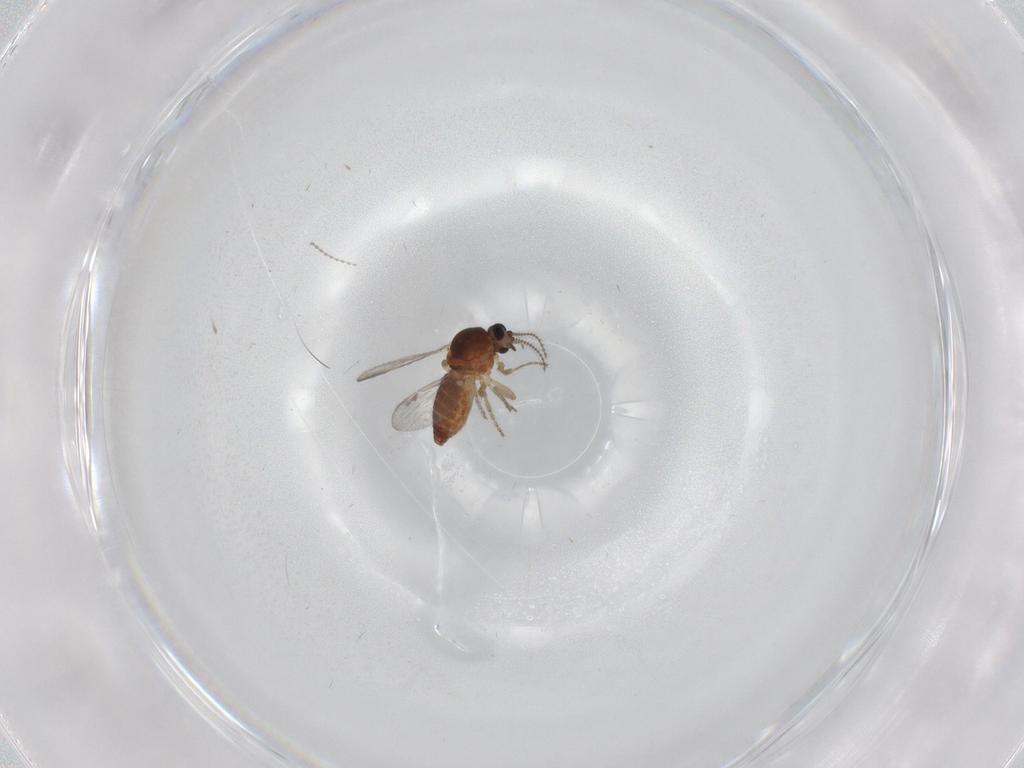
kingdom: Animalia
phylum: Arthropoda
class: Insecta
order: Diptera
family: Ceratopogonidae
